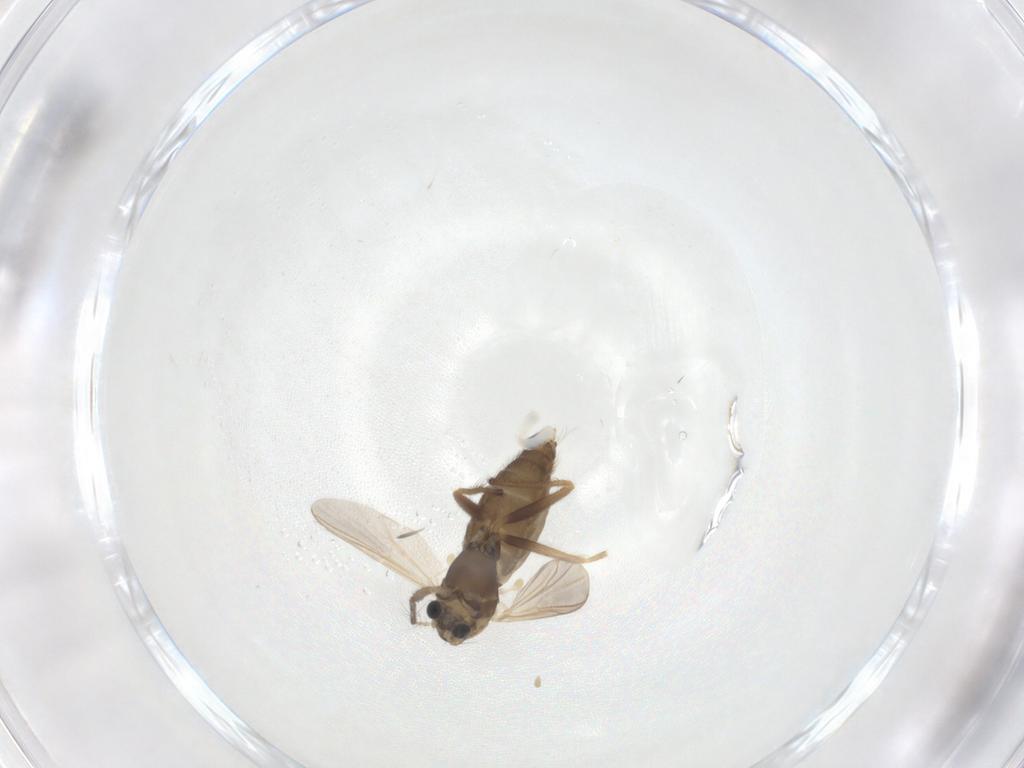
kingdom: Animalia
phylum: Arthropoda
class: Insecta
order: Diptera
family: Chironomidae
